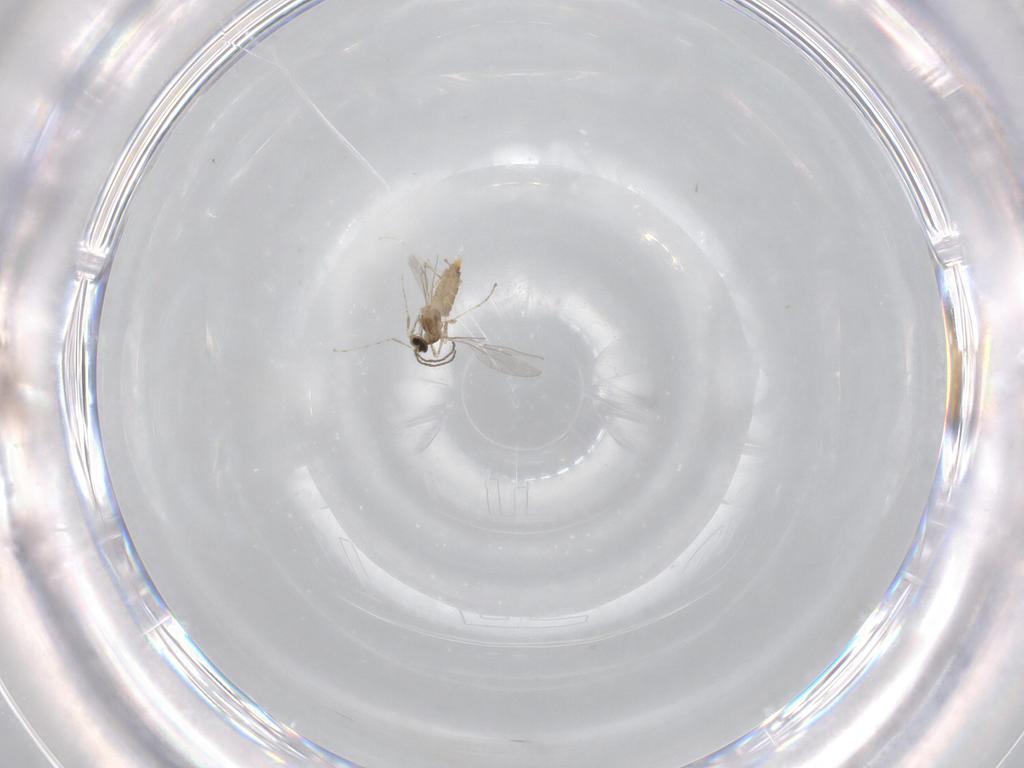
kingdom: Animalia
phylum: Arthropoda
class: Insecta
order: Diptera
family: Cecidomyiidae
